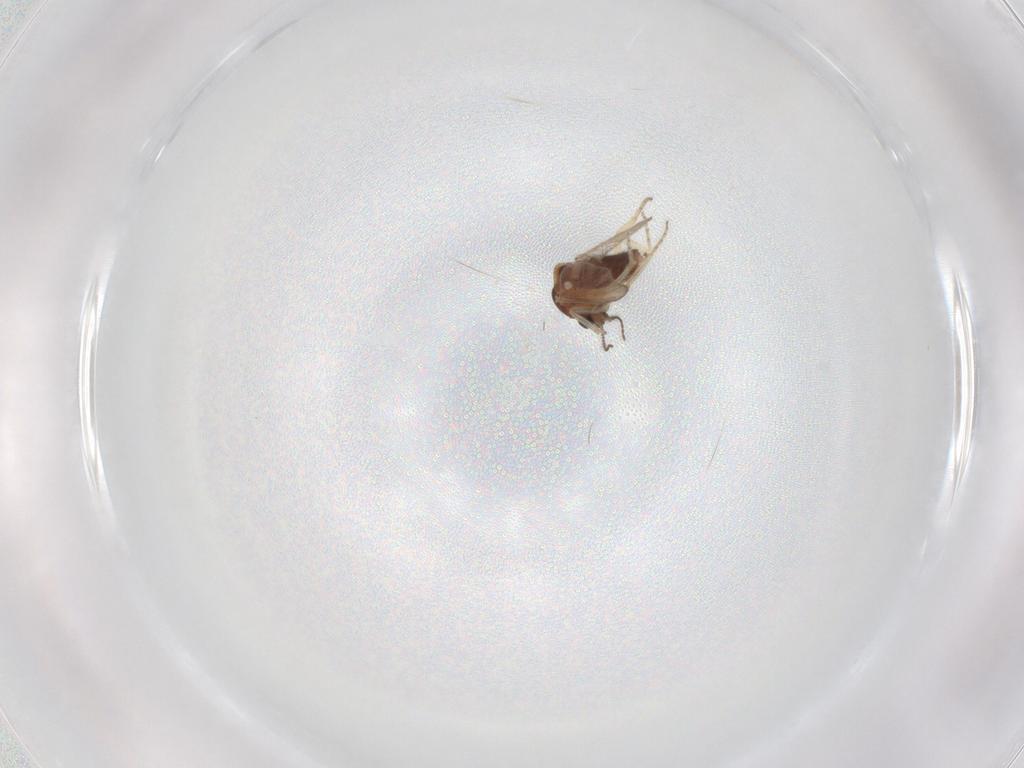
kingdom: Animalia
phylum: Arthropoda
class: Insecta
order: Diptera
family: Ceratopogonidae
